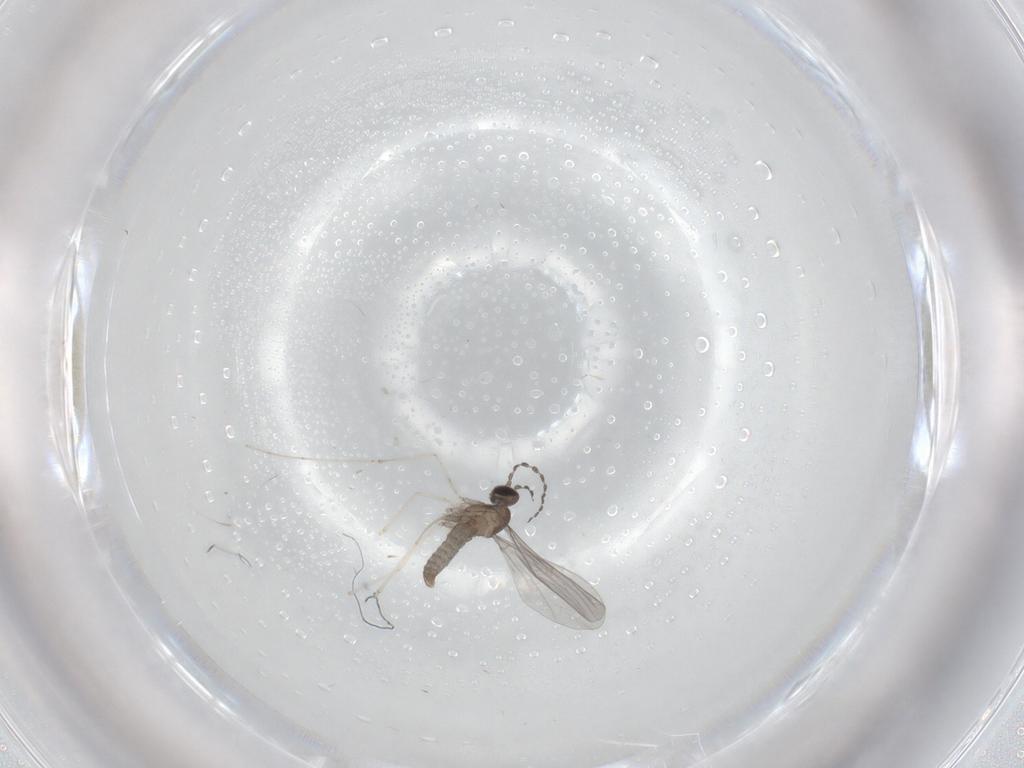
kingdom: Animalia
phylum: Arthropoda
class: Insecta
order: Diptera
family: Cecidomyiidae
